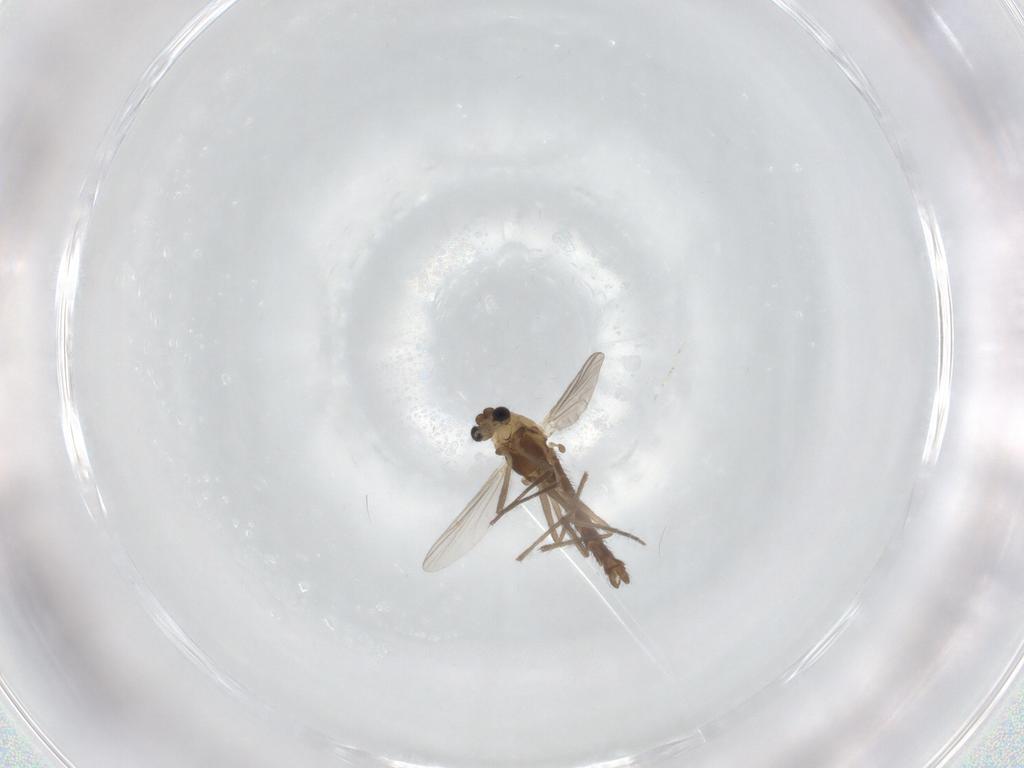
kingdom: Animalia
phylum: Arthropoda
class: Insecta
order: Diptera
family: Chironomidae
